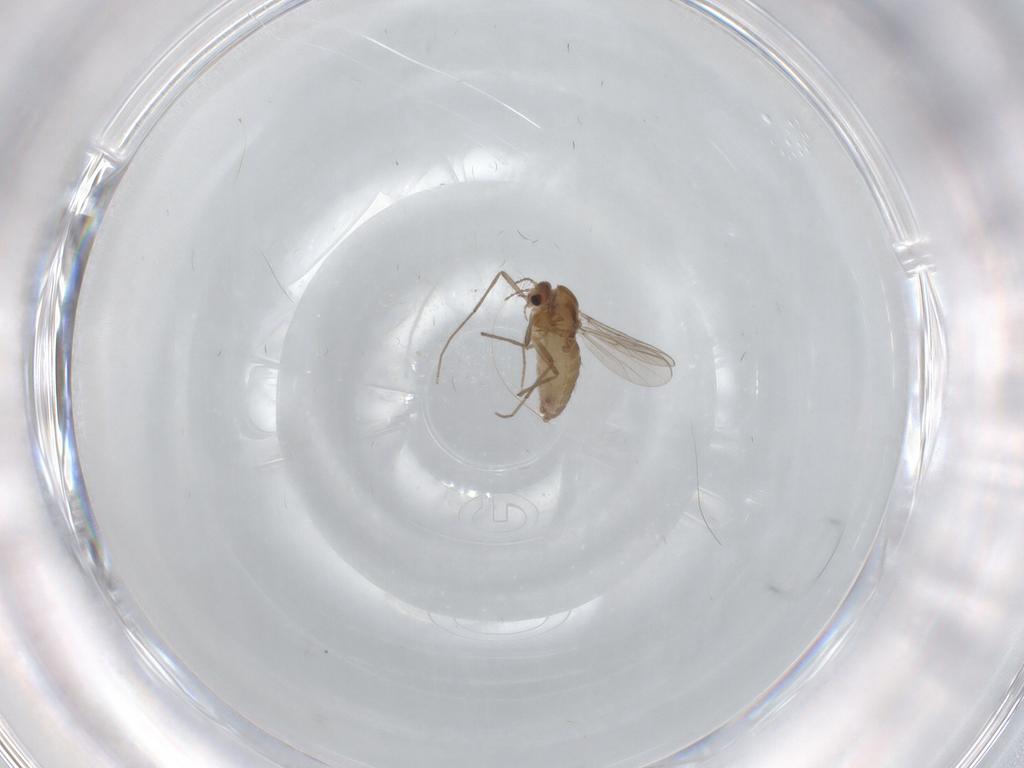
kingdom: Animalia
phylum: Arthropoda
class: Insecta
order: Diptera
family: Chironomidae
